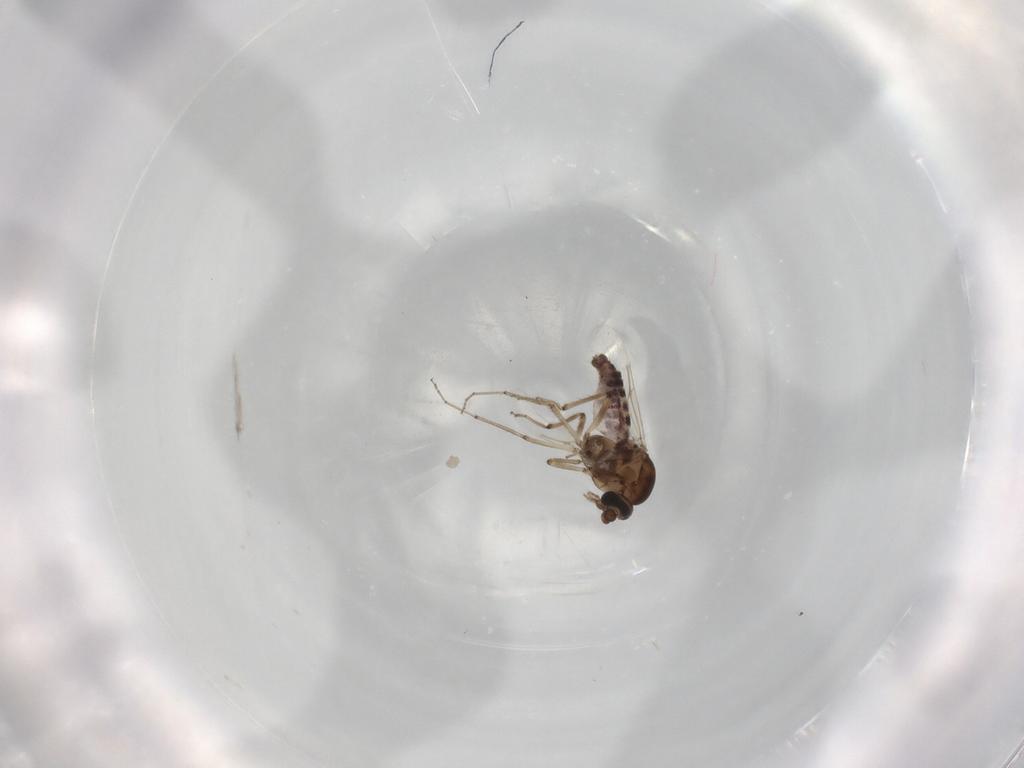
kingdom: Animalia
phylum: Arthropoda
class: Insecta
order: Diptera
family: Ceratopogonidae
